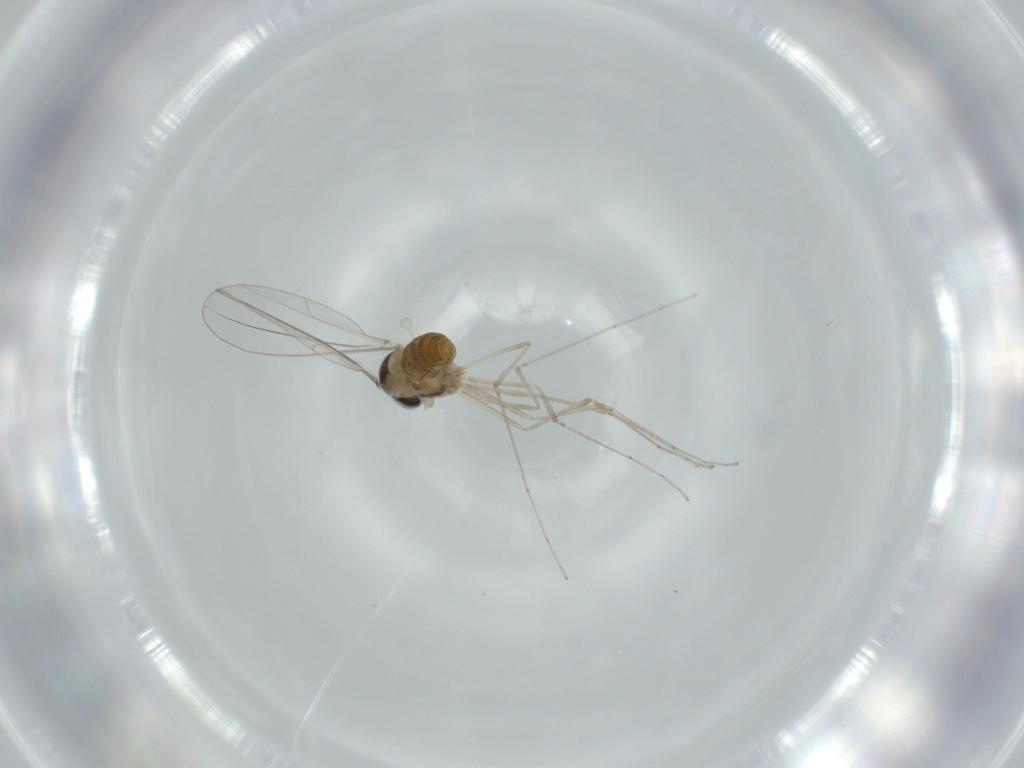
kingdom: Animalia
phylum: Arthropoda
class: Insecta
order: Diptera
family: Cecidomyiidae
